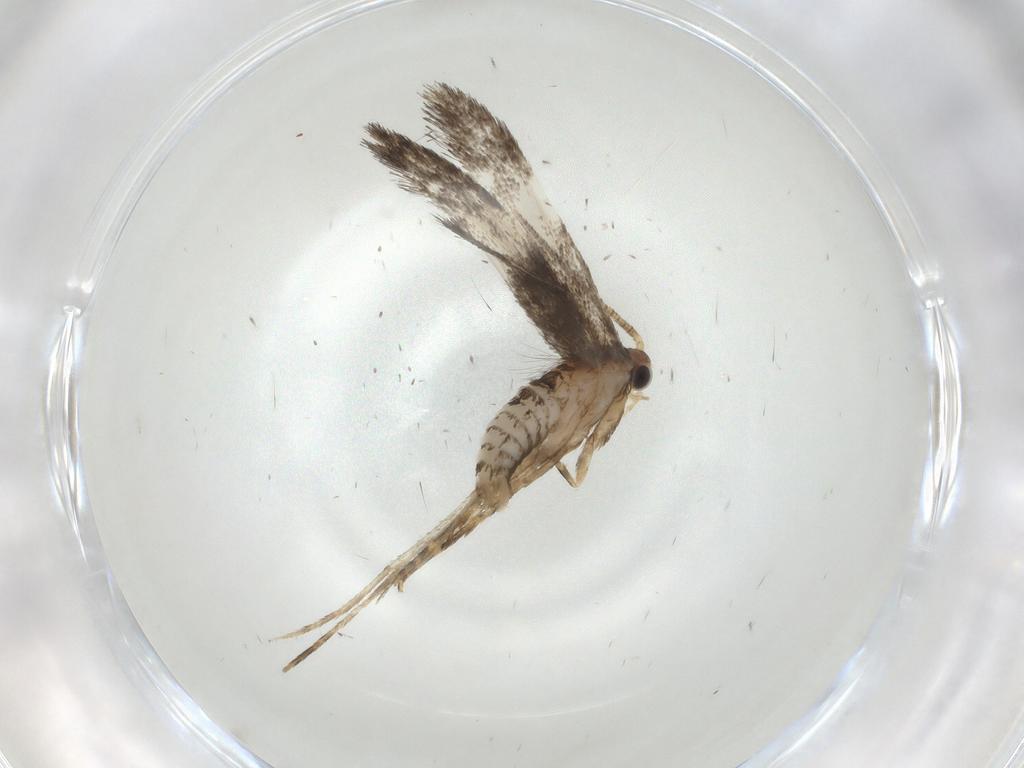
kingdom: Animalia
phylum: Arthropoda
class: Insecta
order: Lepidoptera
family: Tineidae
